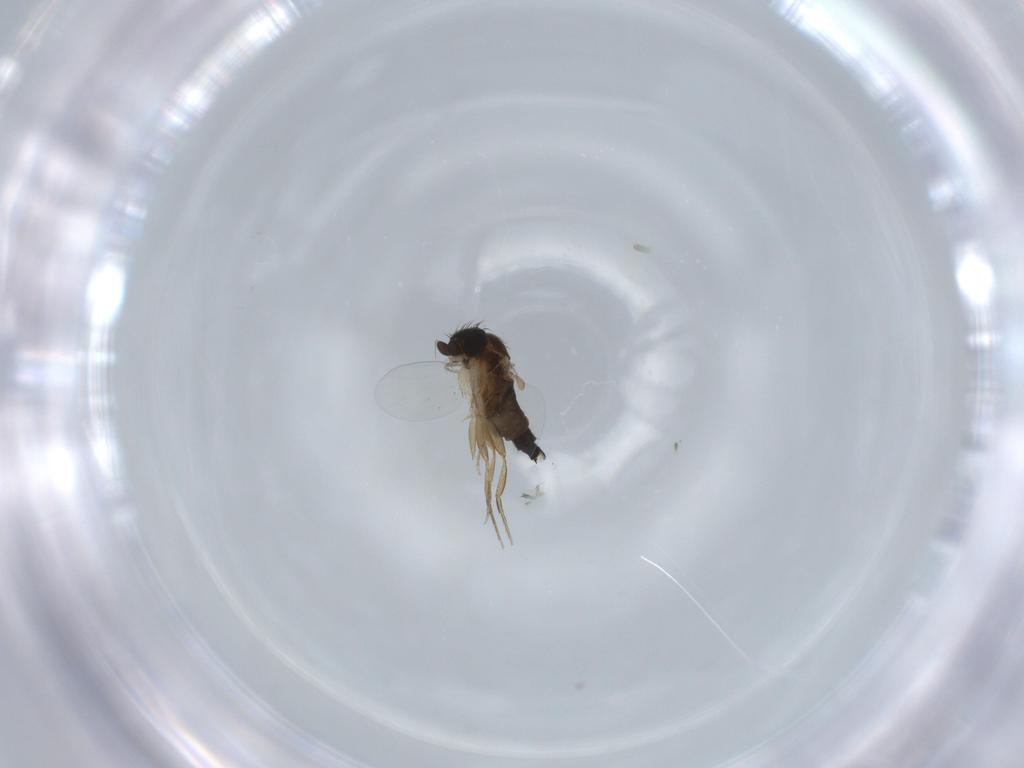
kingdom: Animalia
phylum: Arthropoda
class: Insecta
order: Diptera
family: Phoridae
